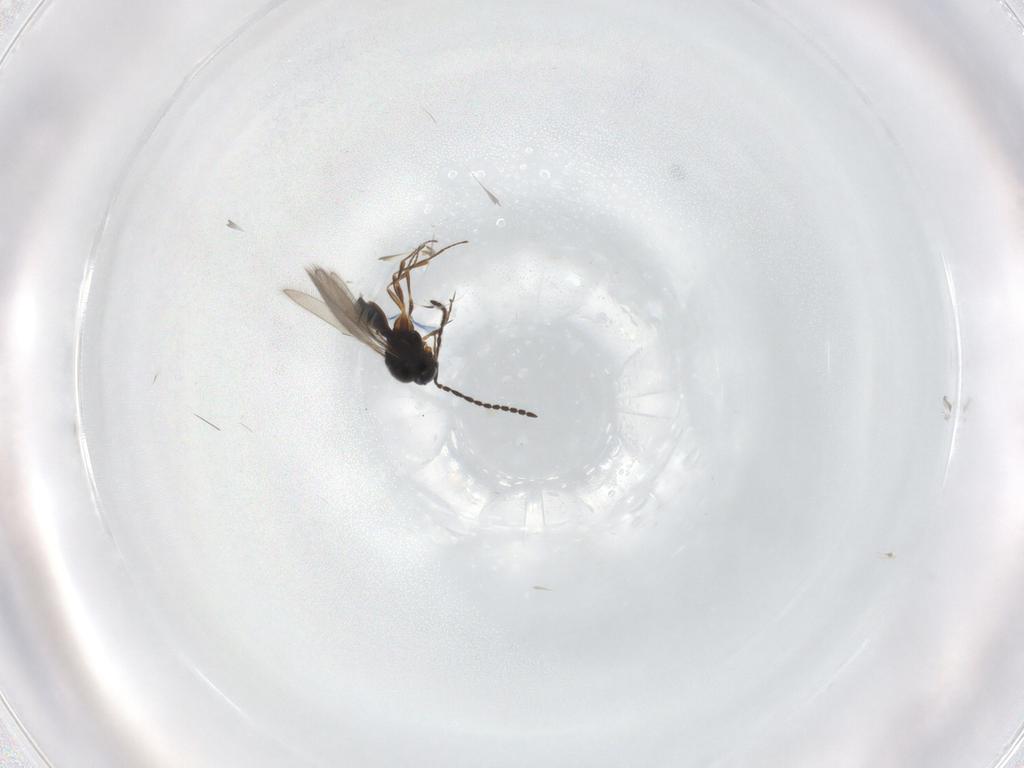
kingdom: Animalia
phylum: Arthropoda
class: Insecta
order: Hymenoptera
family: Scelionidae
